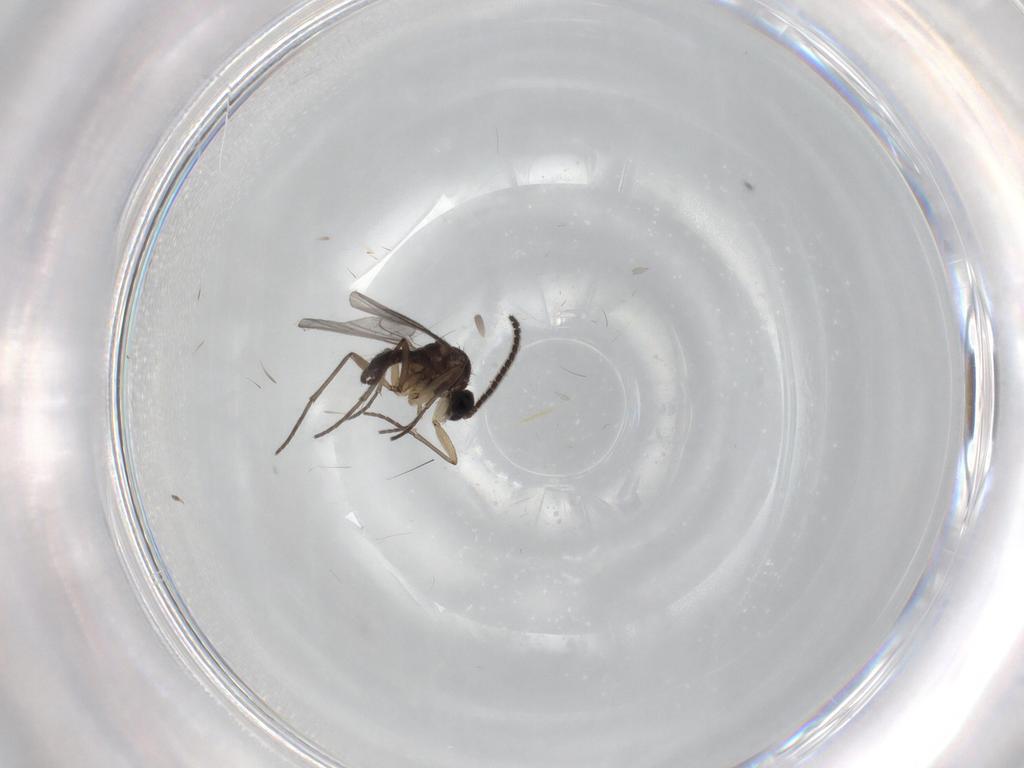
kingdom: Animalia
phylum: Arthropoda
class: Insecta
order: Diptera
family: Sciaridae
